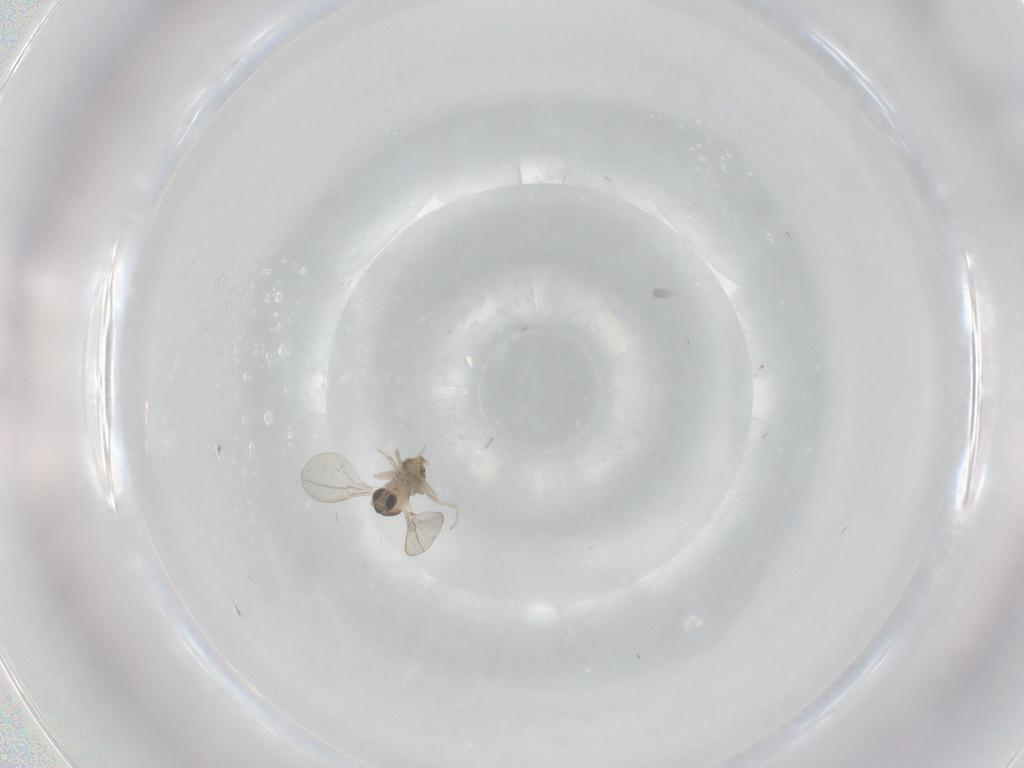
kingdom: Animalia
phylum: Arthropoda
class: Insecta
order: Diptera
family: Cecidomyiidae
